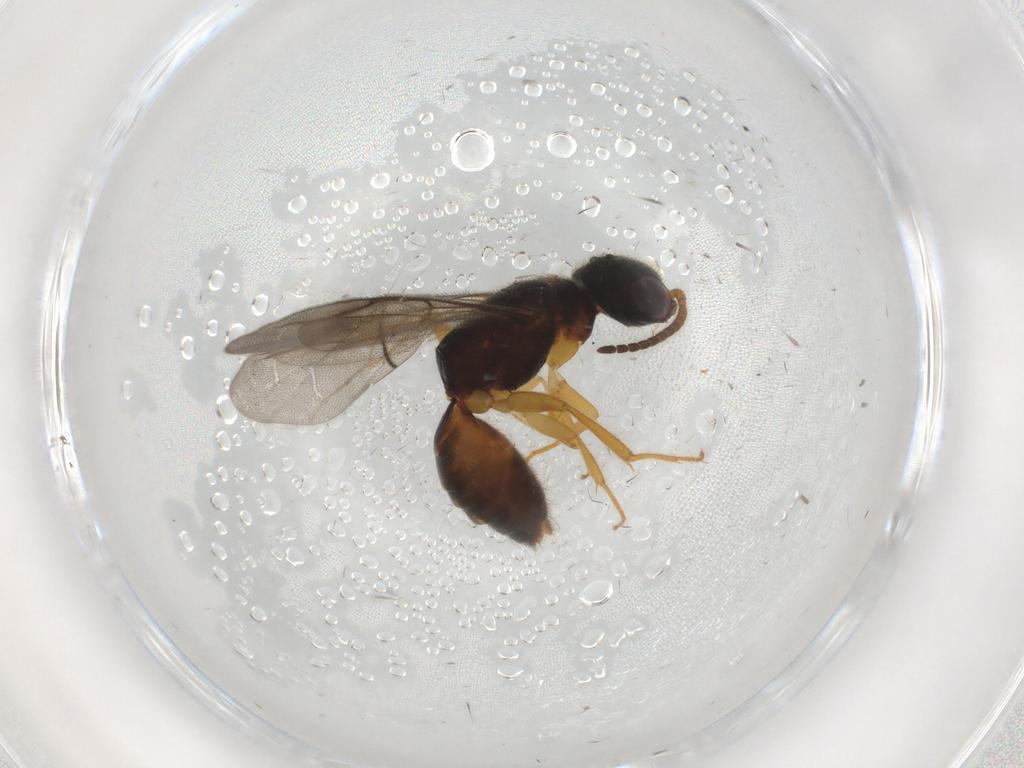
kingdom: Animalia
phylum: Arthropoda
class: Insecta
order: Hymenoptera
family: Bethylidae
